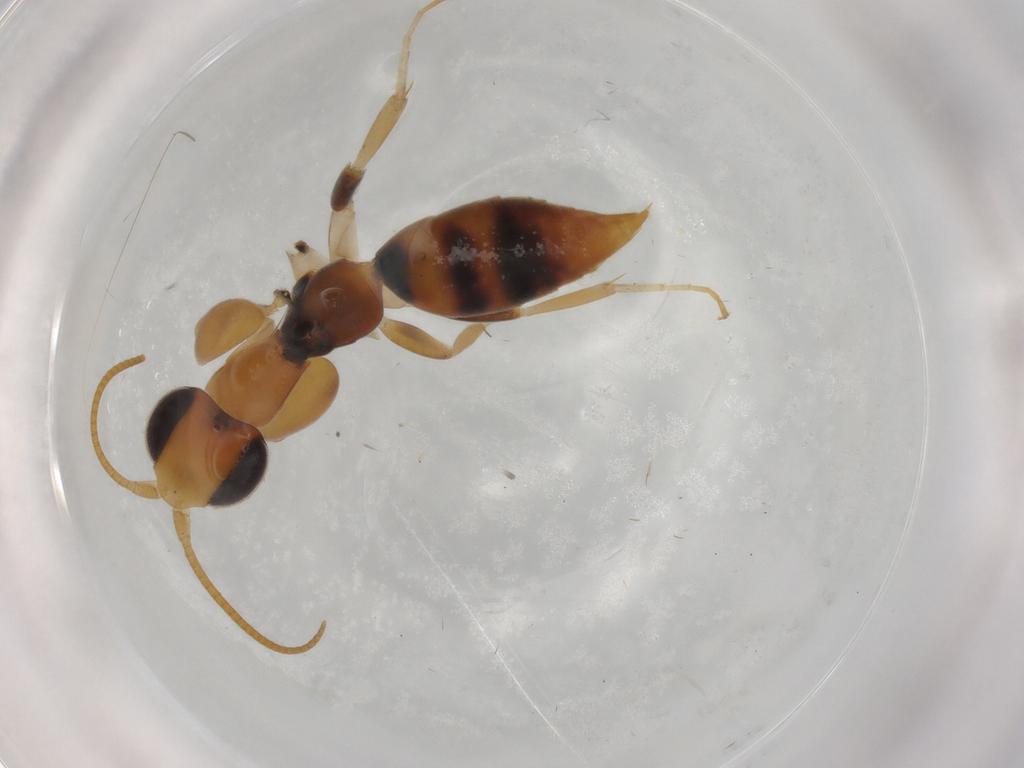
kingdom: Animalia
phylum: Arthropoda
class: Insecta
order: Hymenoptera
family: Sclerogibbidae
